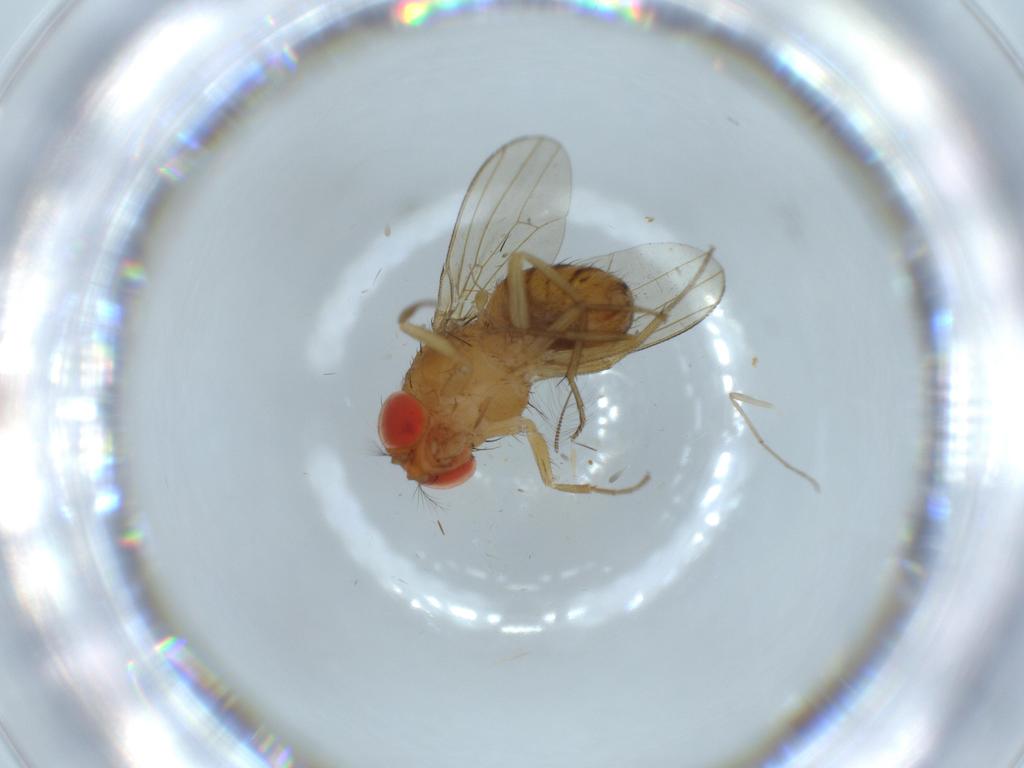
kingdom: Animalia
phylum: Arthropoda
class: Insecta
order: Diptera
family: Drosophilidae
